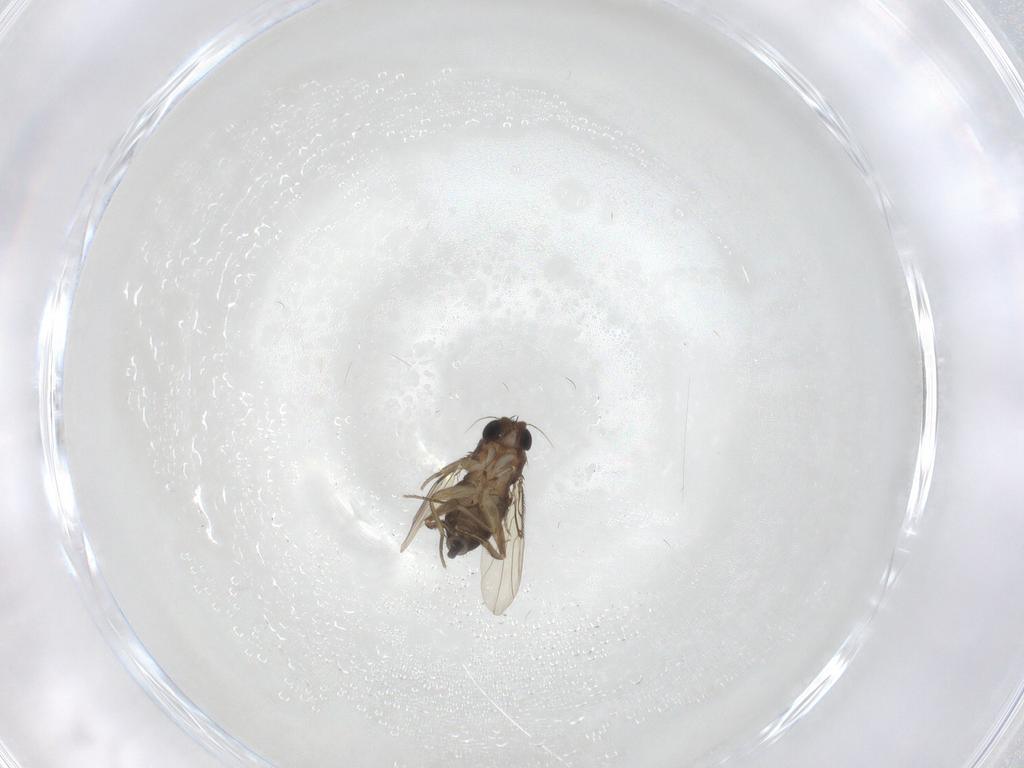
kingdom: Animalia
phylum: Arthropoda
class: Insecta
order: Diptera
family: Phoridae
